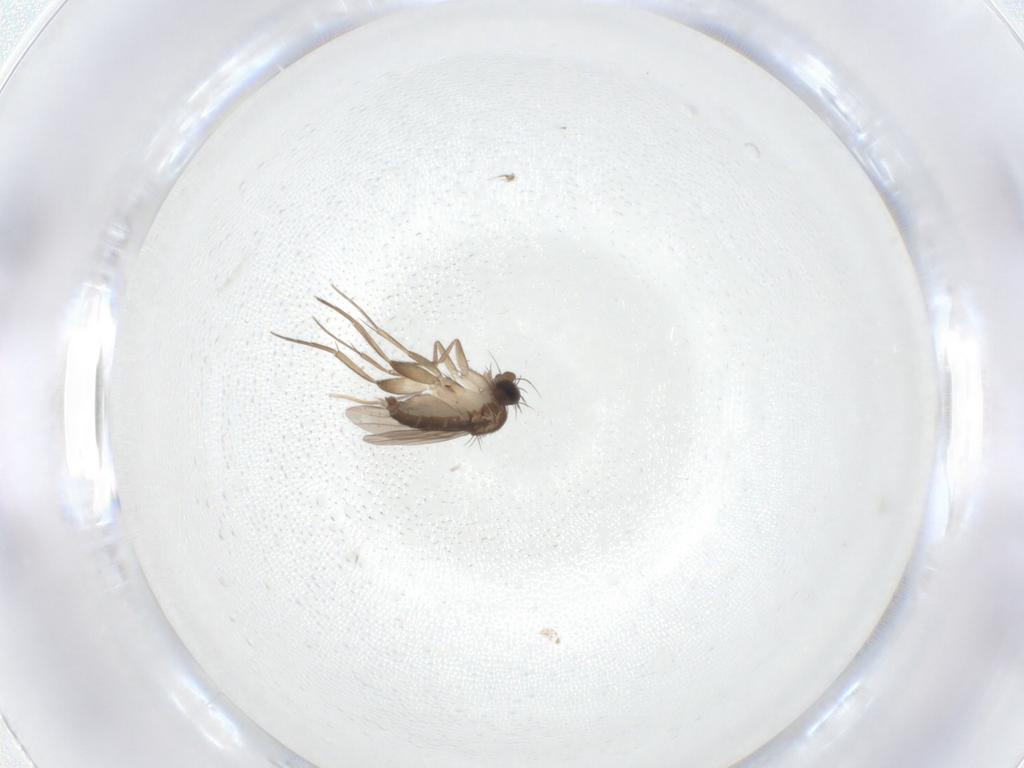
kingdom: Animalia
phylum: Arthropoda
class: Insecta
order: Diptera
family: Phoridae
